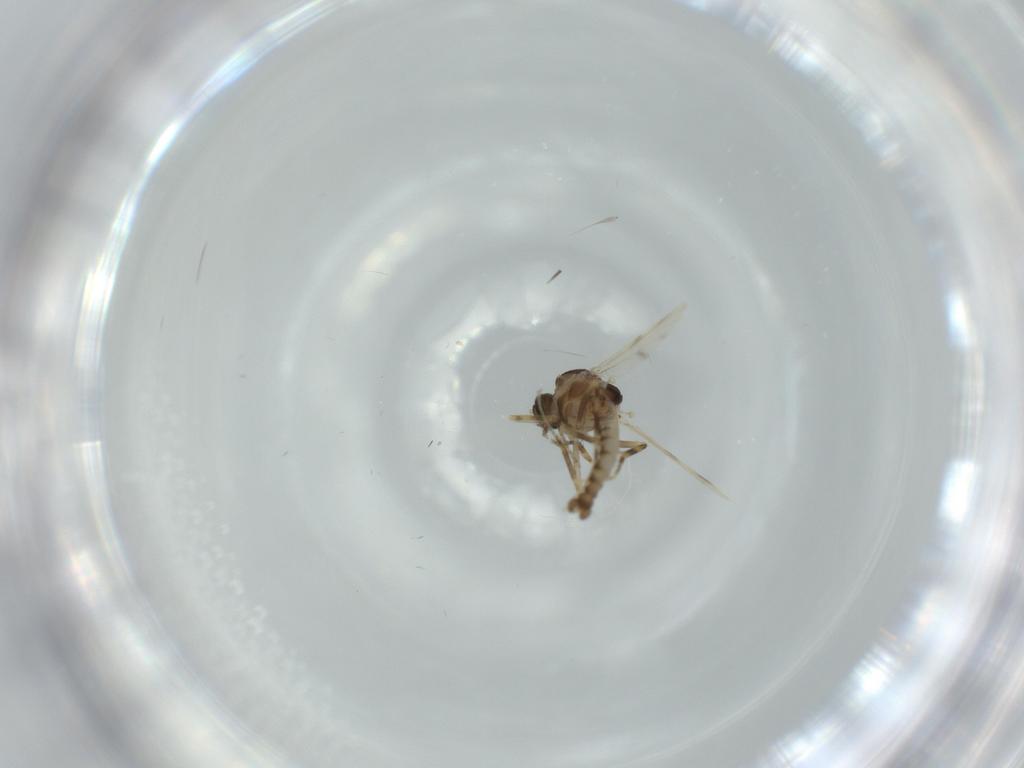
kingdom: Animalia
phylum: Arthropoda
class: Insecta
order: Diptera
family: Ceratopogonidae
